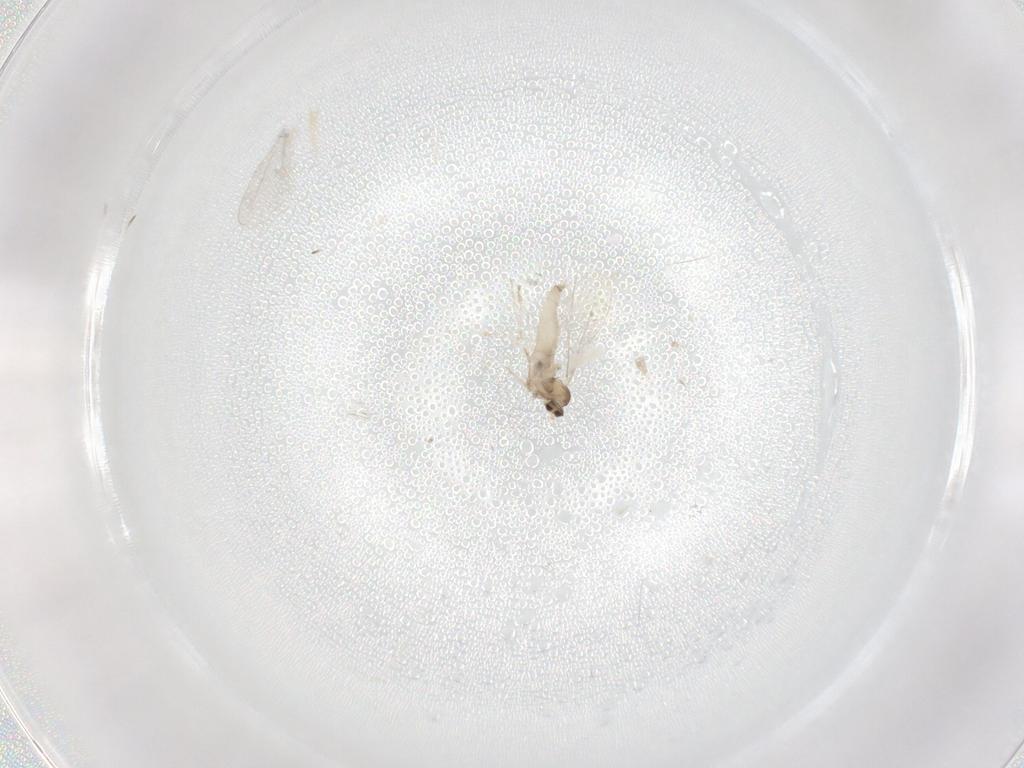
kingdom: Animalia
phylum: Arthropoda
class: Insecta
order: Diptera
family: Cecidomyiidae
